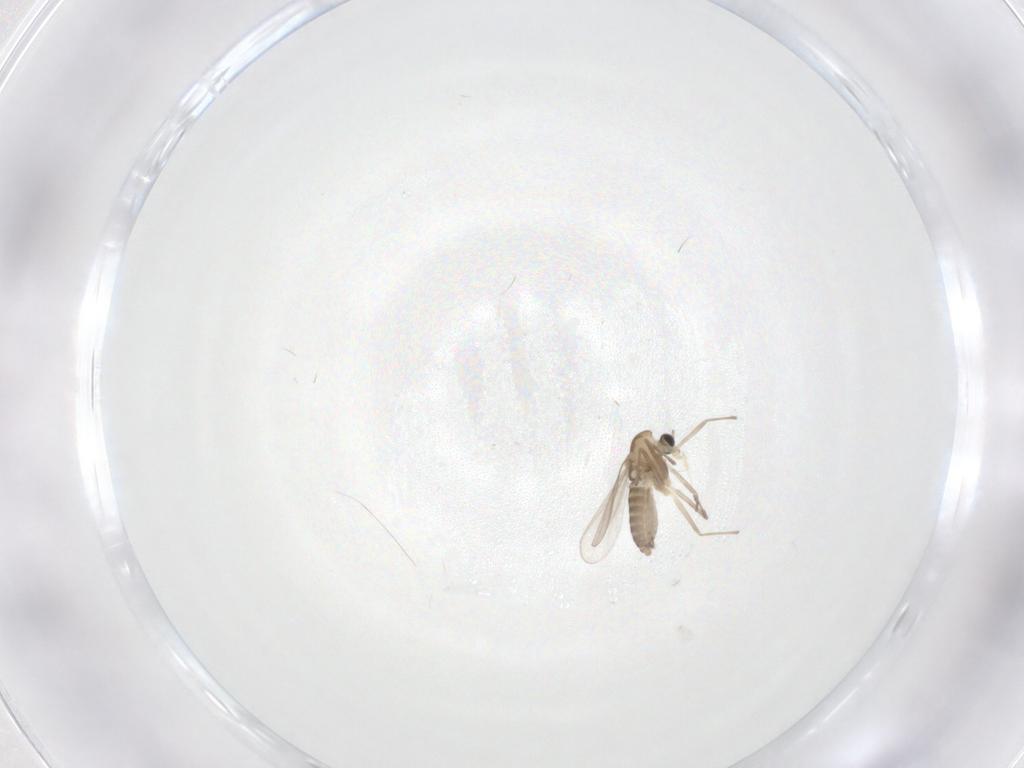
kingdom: Animalia
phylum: Arthropoda
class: Insecta
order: Diptera
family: Chironomidae
